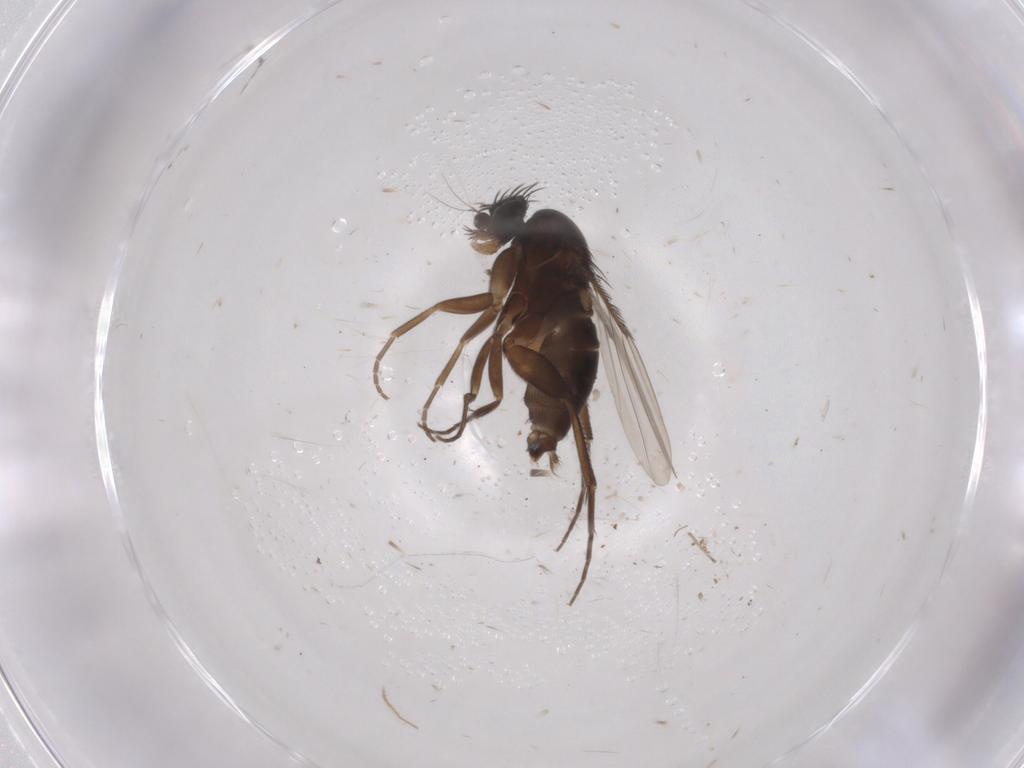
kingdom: Animalia
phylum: Arthropoda
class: Insecta
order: Diptera
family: Phoridae
